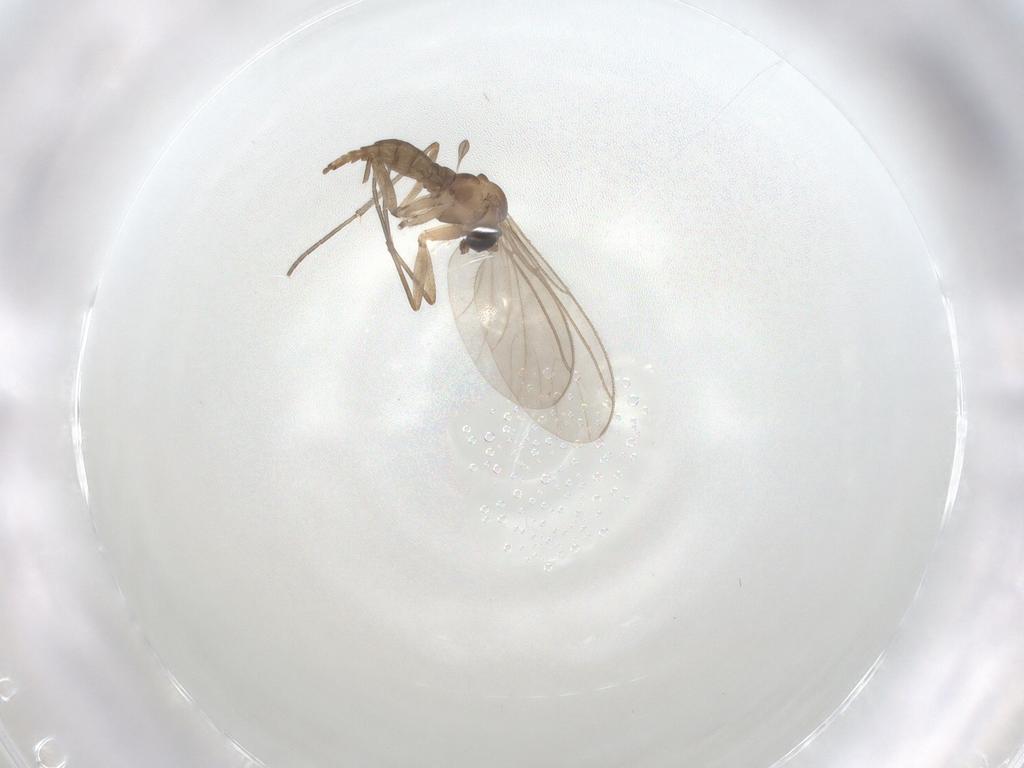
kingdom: Animalia
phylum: Arthropoda
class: Insecta
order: Diptera
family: Sciaridae
